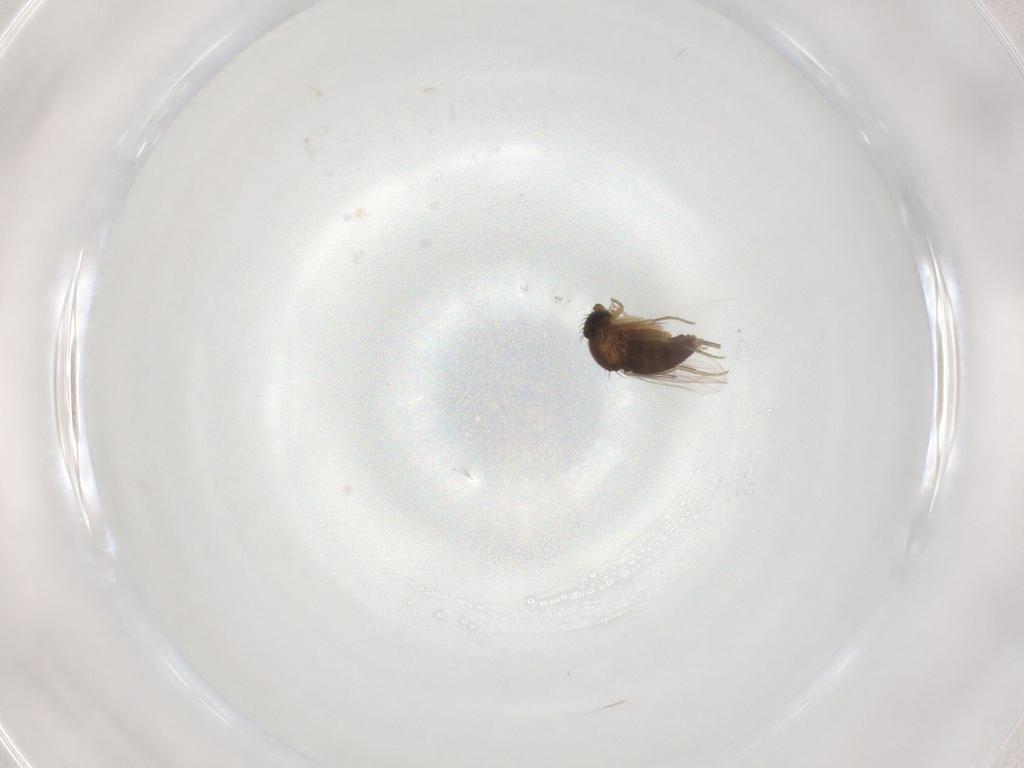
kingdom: Animalia
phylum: Arthropoda
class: Insecta
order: Diptera
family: Phoridae
